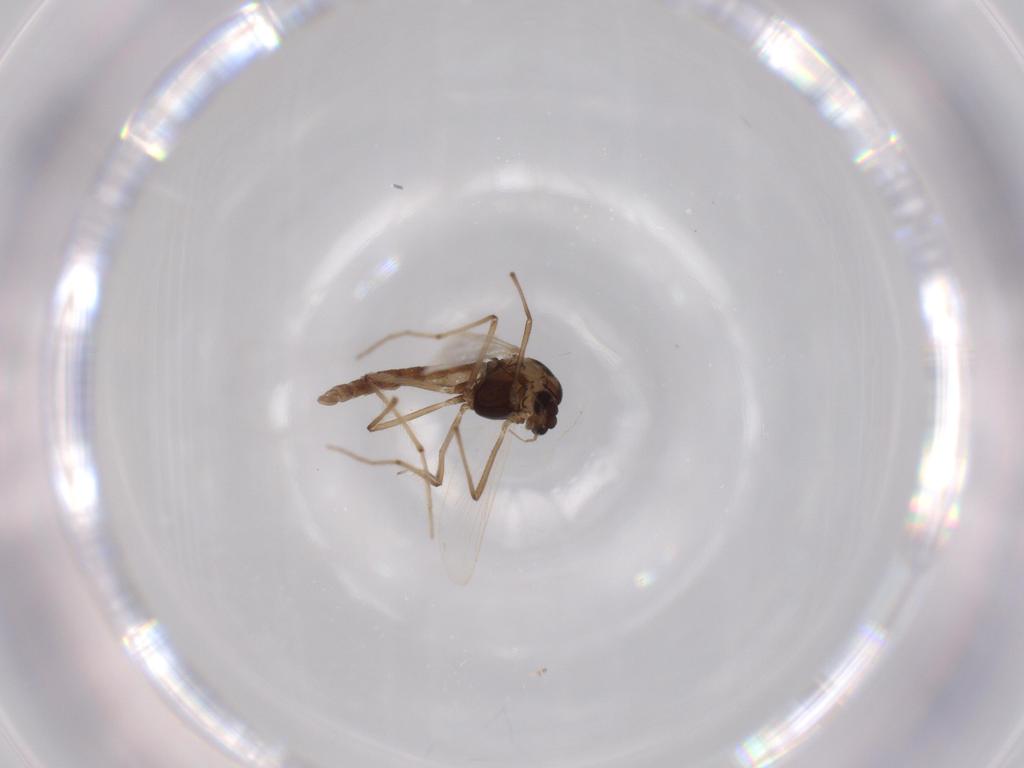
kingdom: Animalia
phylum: Arthropoda
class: Insecta
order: Diptera
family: Chironomidae
